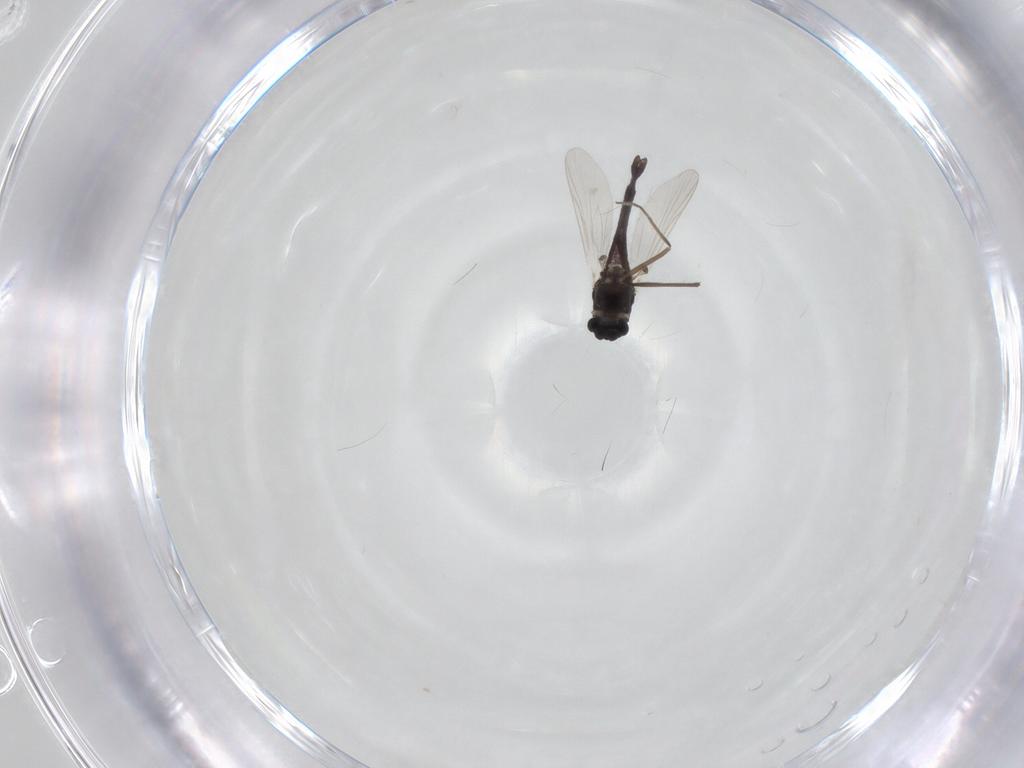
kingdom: Animalia
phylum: Arthropoda
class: Insecta
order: Diptera
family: Chironomidae
